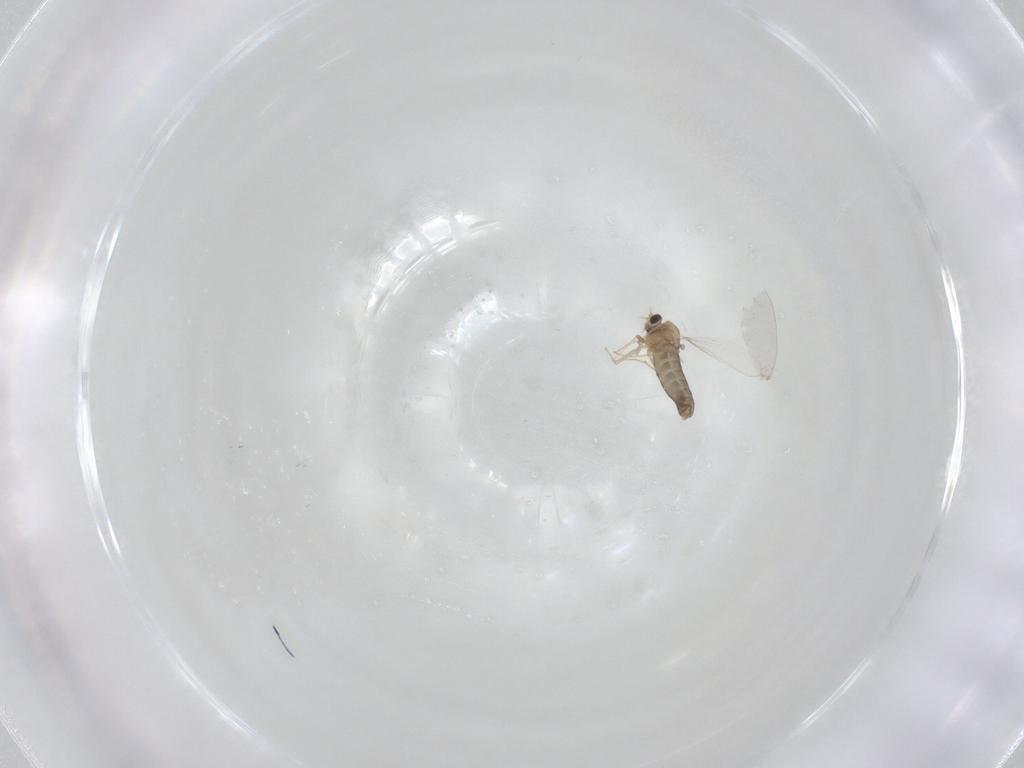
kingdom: Animalia
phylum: Arthropoda
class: Insecta
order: Diptera
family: Chironomidae
